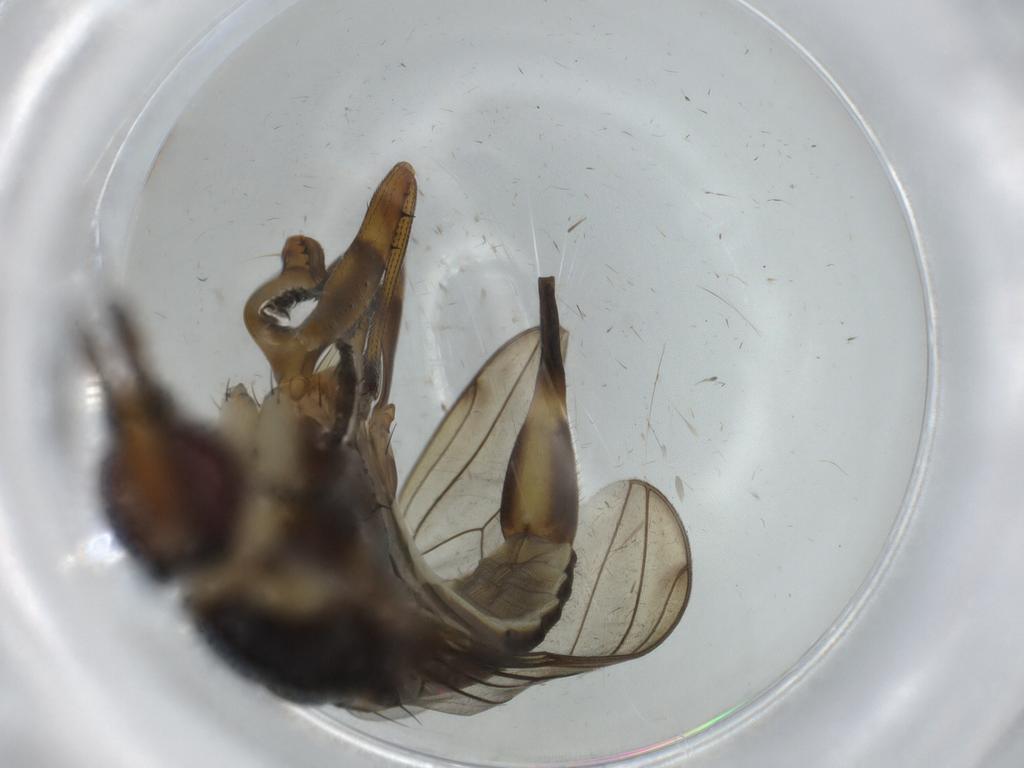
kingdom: Animalia
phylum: Arthropoda
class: Insecta
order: Diptera
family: Neriidae
